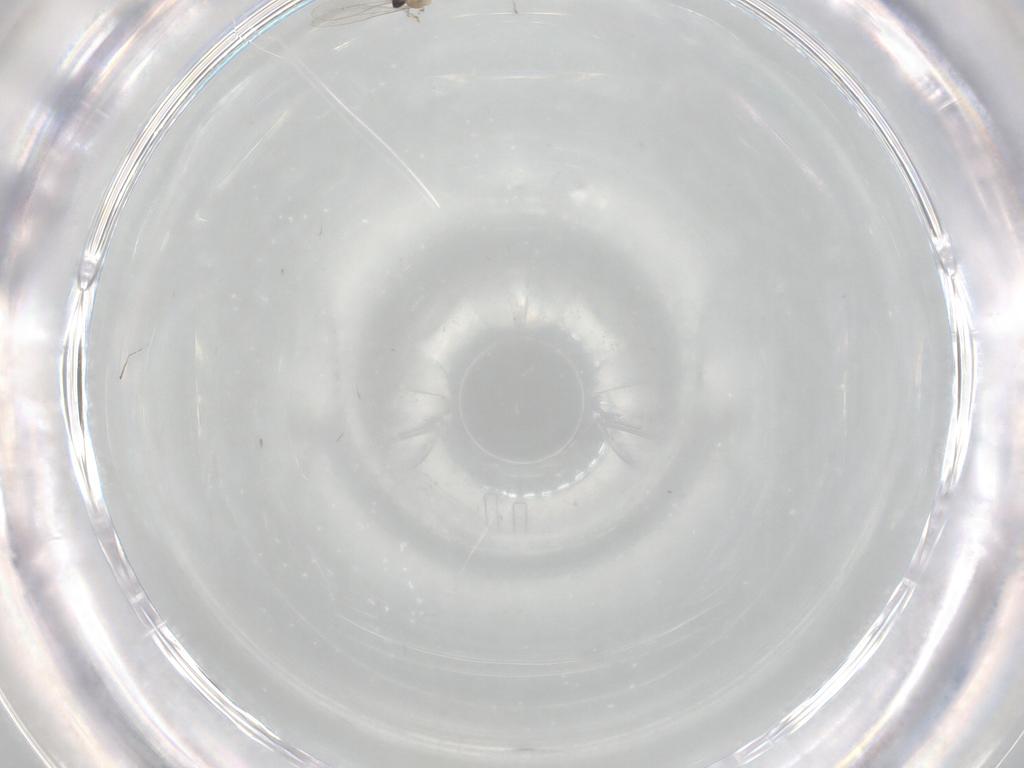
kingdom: Animalia
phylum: Arthropoda
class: Insecta
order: Diptera
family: Cecidomyiidae
